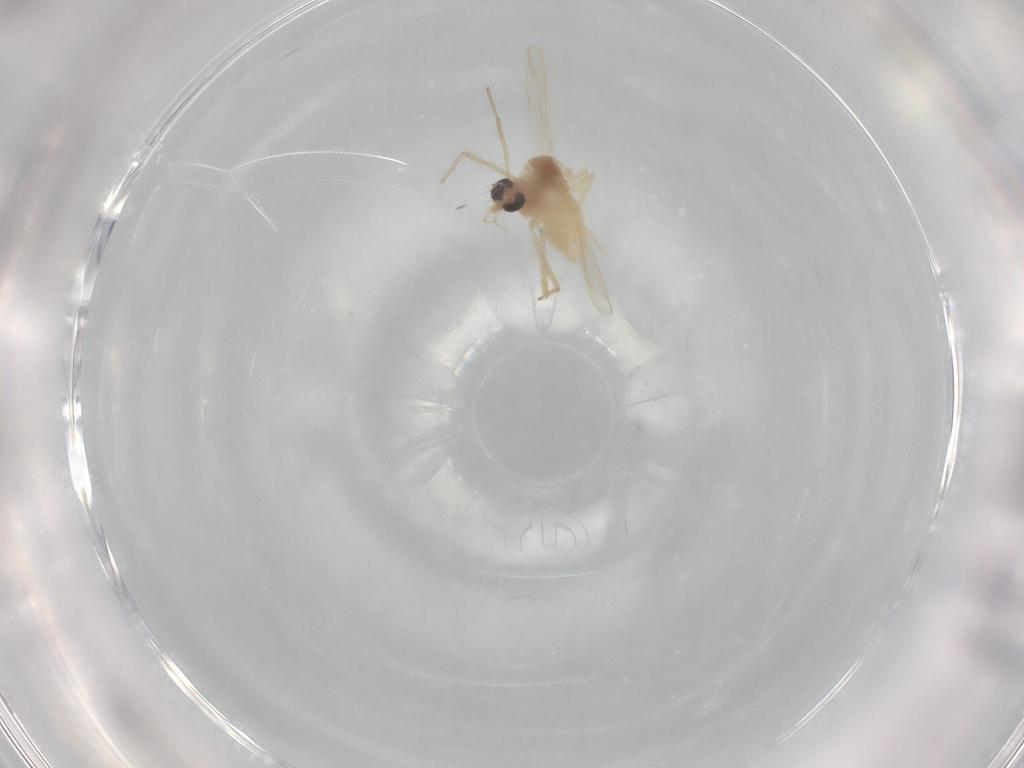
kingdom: Animalia
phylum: Arthropoda
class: Insecta
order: Diptera
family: Chironomidae
